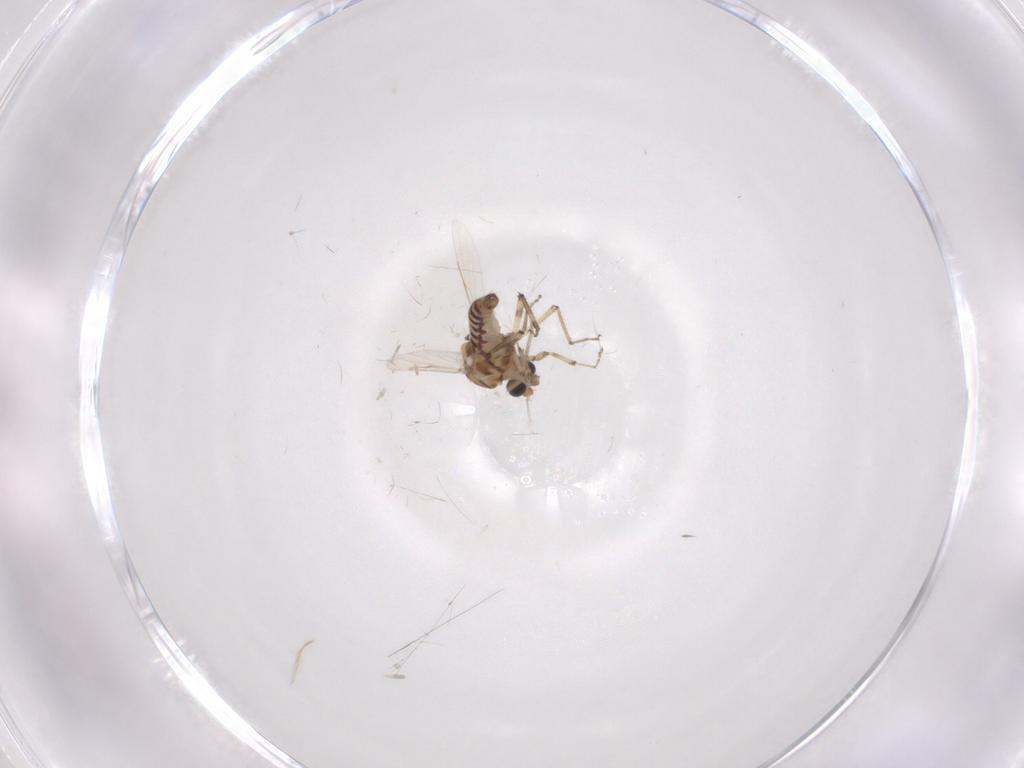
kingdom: Animalia
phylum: Arthropoda
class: Insecta
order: Diptera
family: Ceratopogonidae
